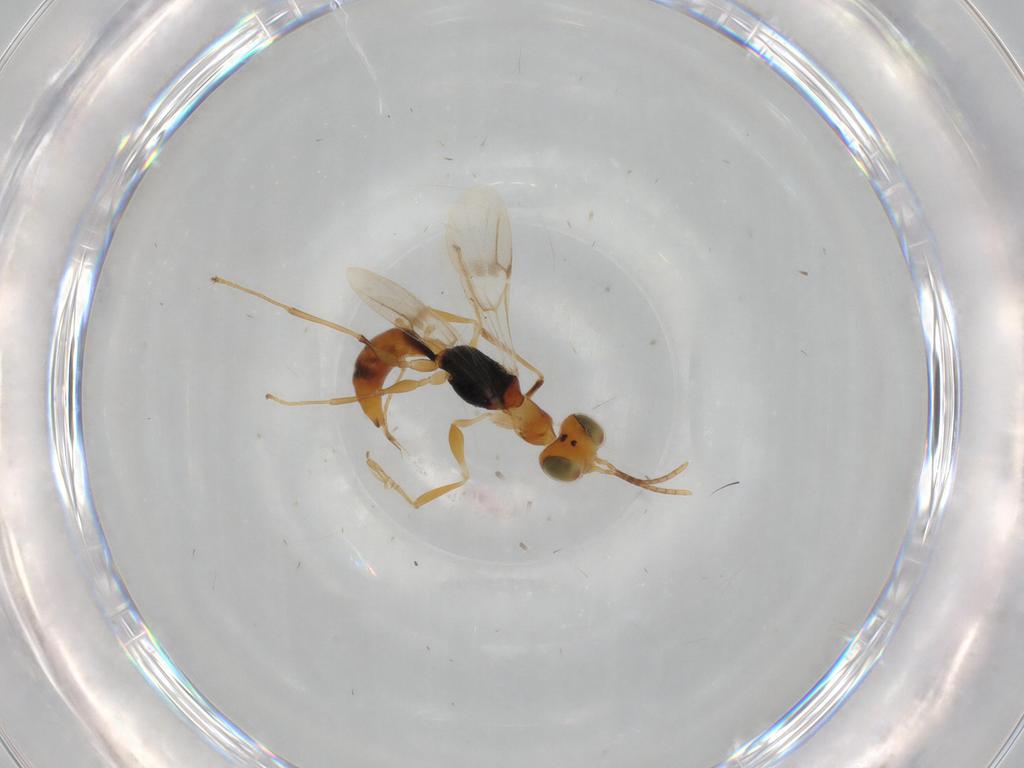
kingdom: Animalia
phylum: Arthropoda
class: Insecta
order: Hymenoptera
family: Dryinidae
